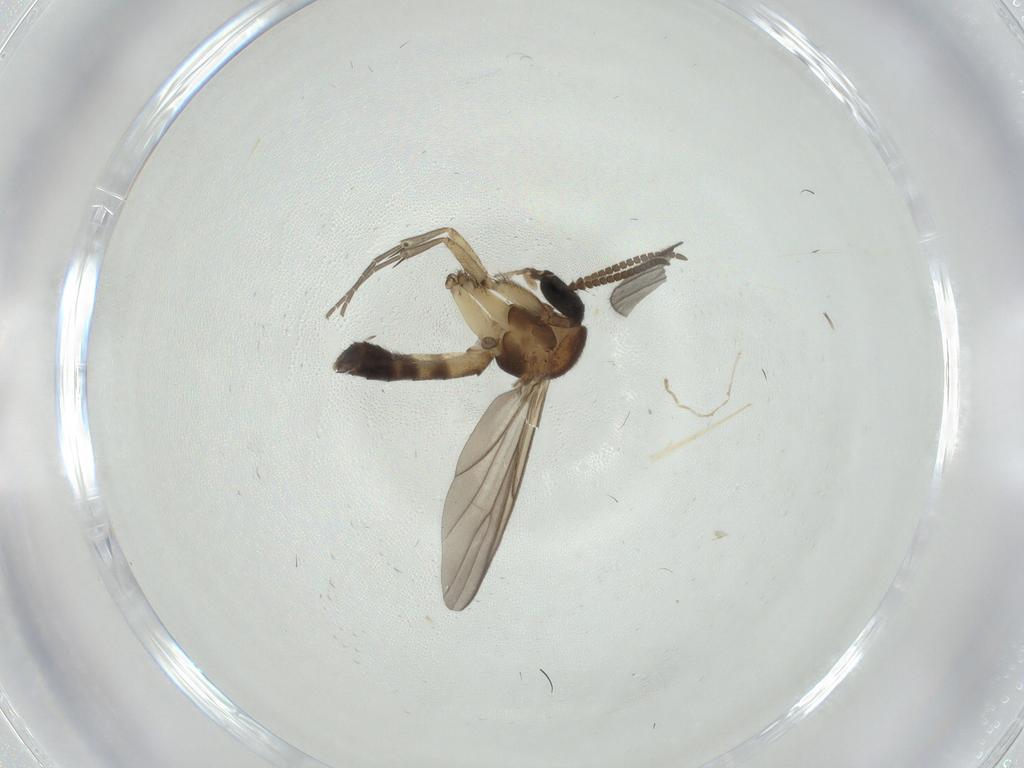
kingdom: Animalia
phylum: Arthropoda
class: Insecta
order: Diptera
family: Mycetophilidae
